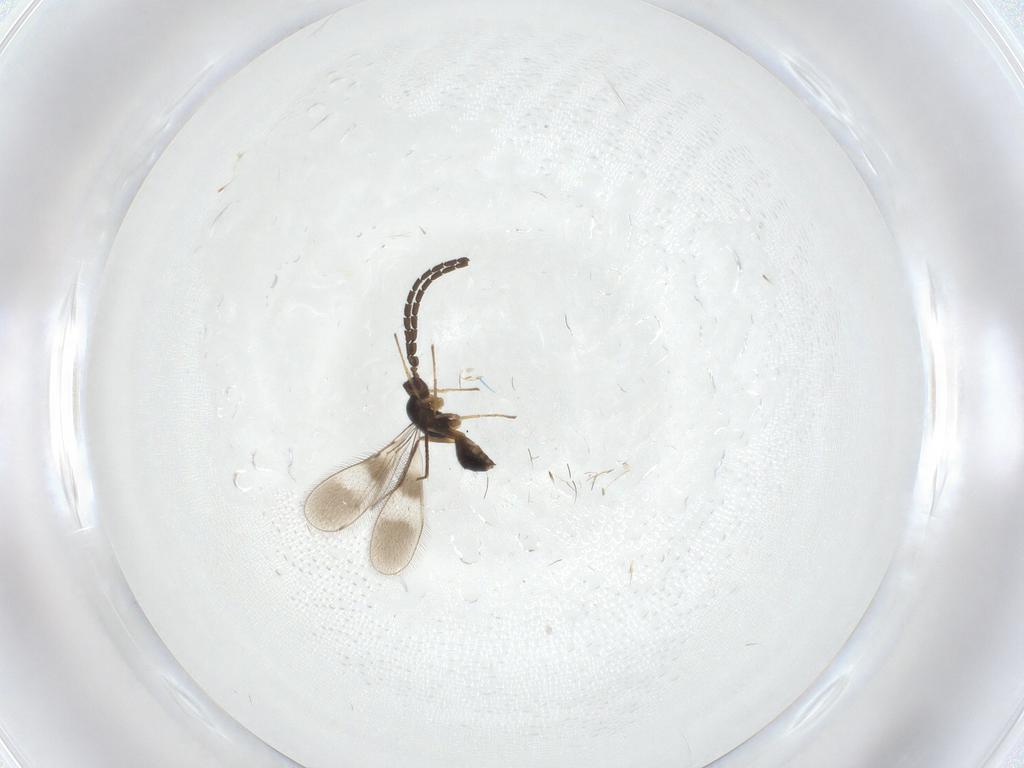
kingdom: Animalia
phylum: Arthropoda
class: Insecta
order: Hymenoptera
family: Mymaridae
